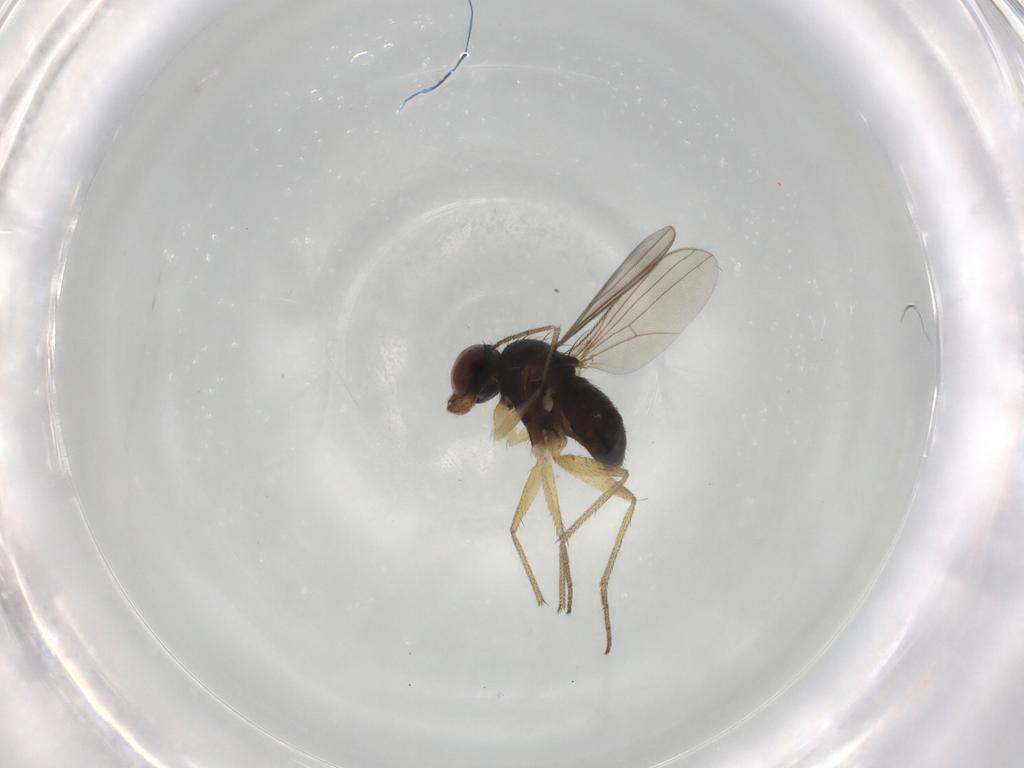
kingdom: Animalia
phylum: Arthropoda
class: Insecta
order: Diptera
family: Dolichopodidae
